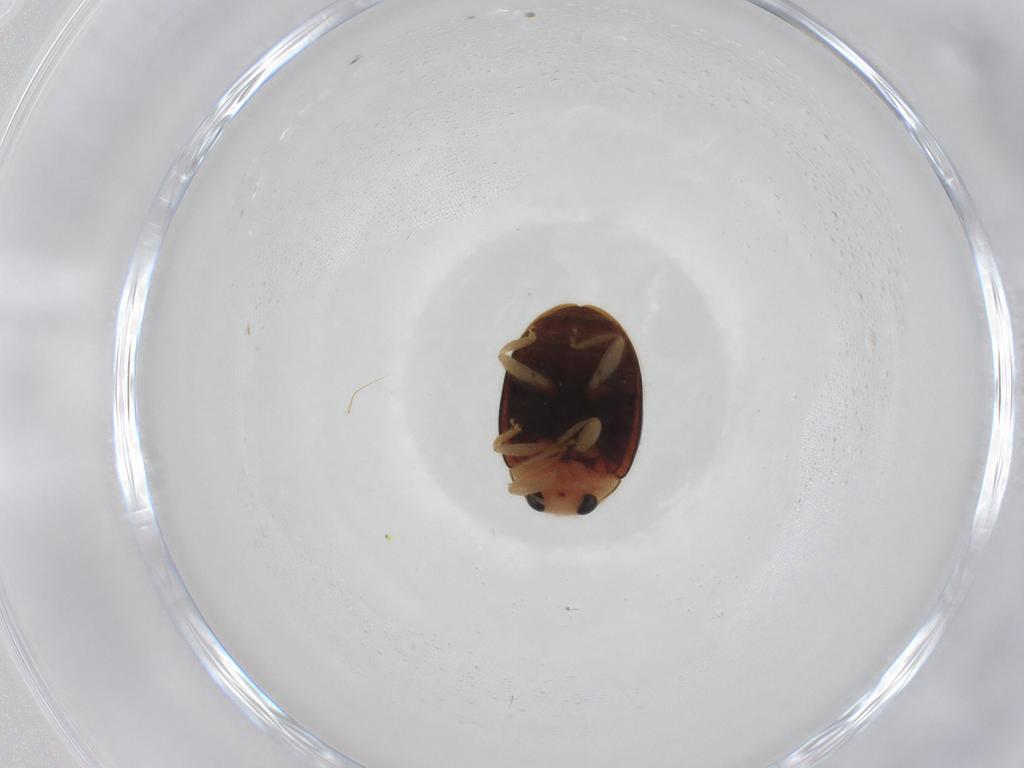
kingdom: Animalia
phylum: Arthropoda
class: Insecta
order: Coleoptera
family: Coccinellidae
